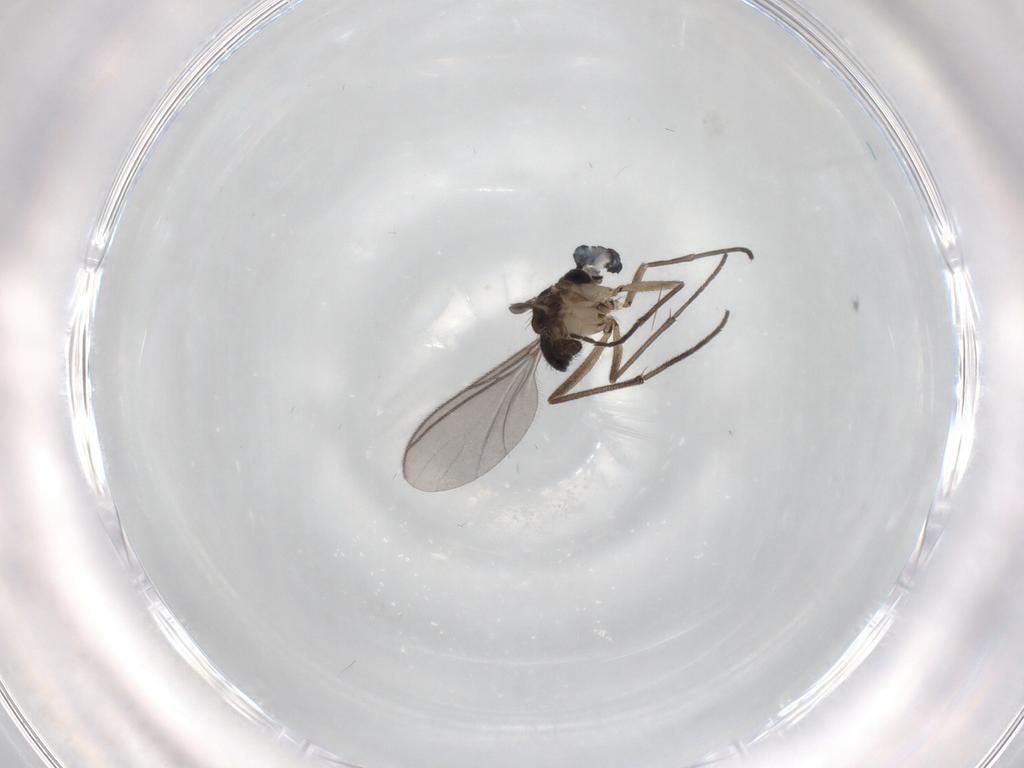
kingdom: Animalia
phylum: Arthropoda
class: Insecta
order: Diptera
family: Sciaridae
